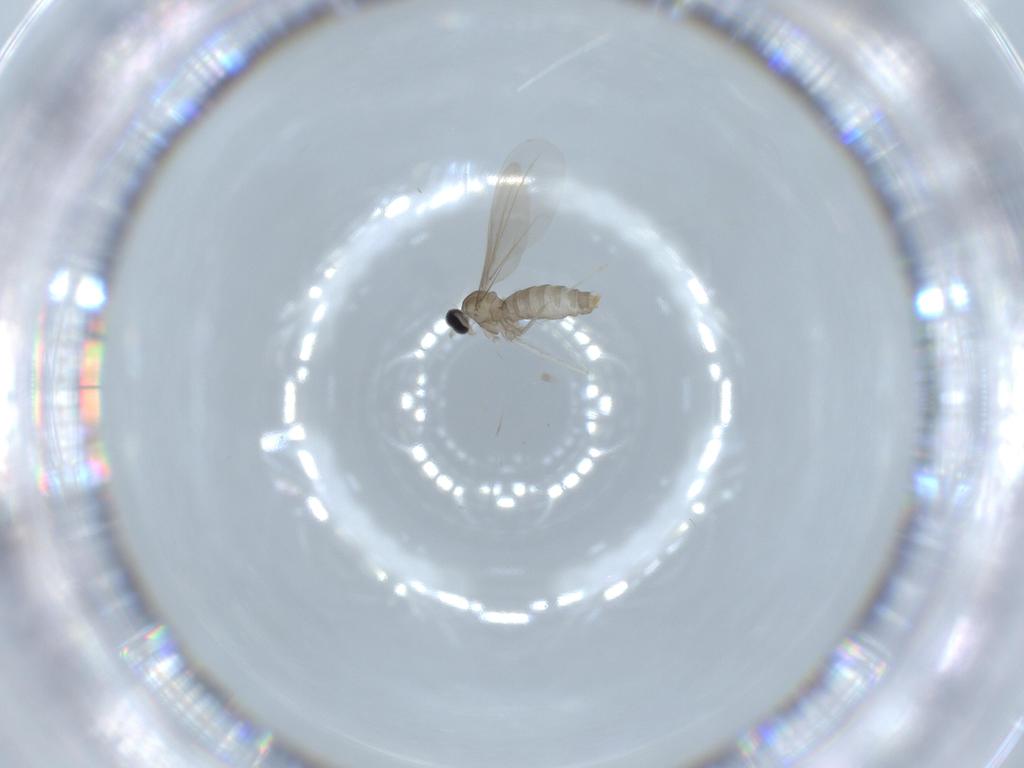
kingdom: Animalia
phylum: Arthropoda
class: Insecta
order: Diptera
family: Cecidomyiidae
